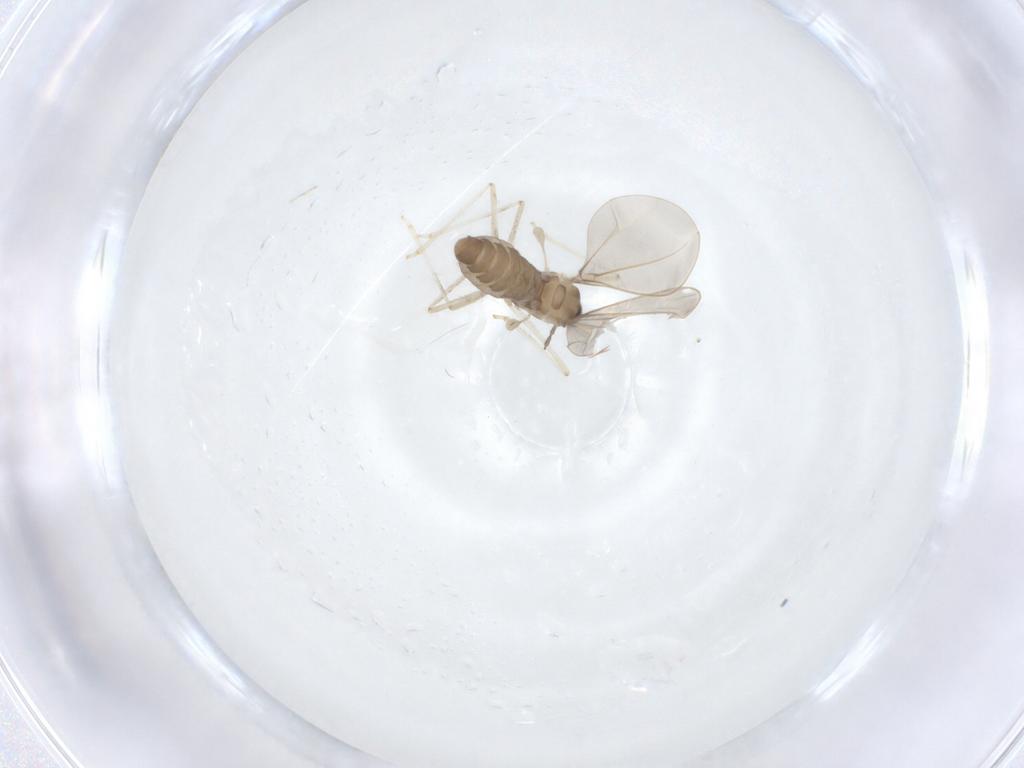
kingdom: Animalia
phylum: Arthropoda
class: Insecta
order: Diptera
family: Cecidomyiidae
